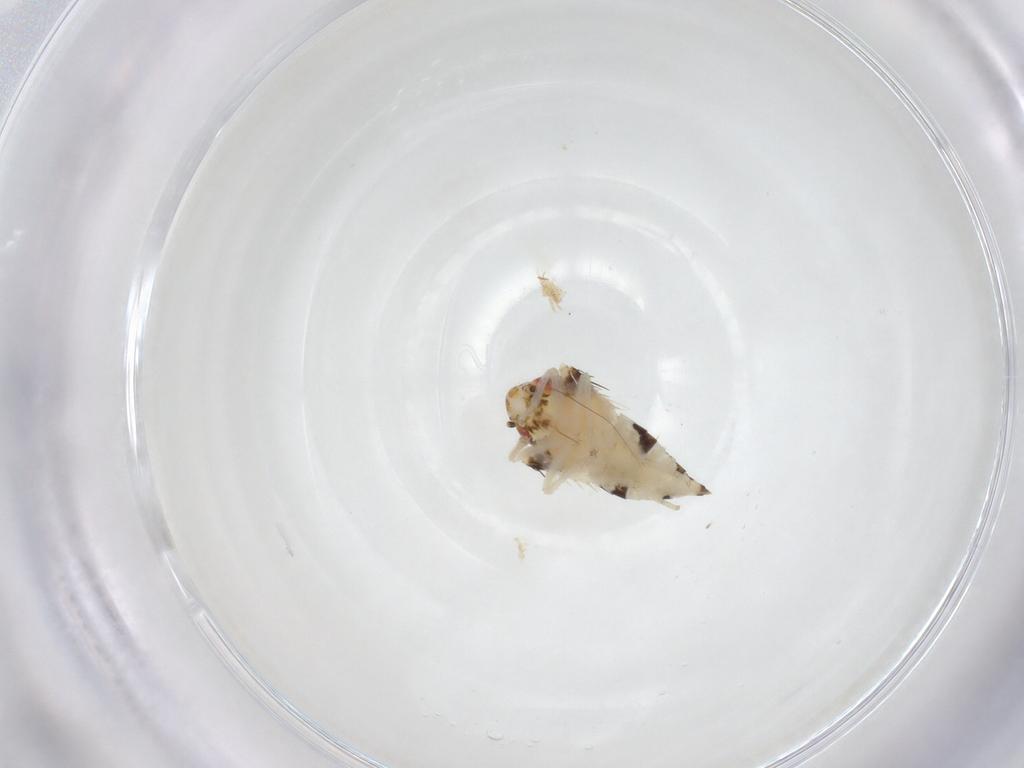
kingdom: Animalia
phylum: Arthropoda
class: Insecta
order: Hemiptera
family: Cicadellidae
